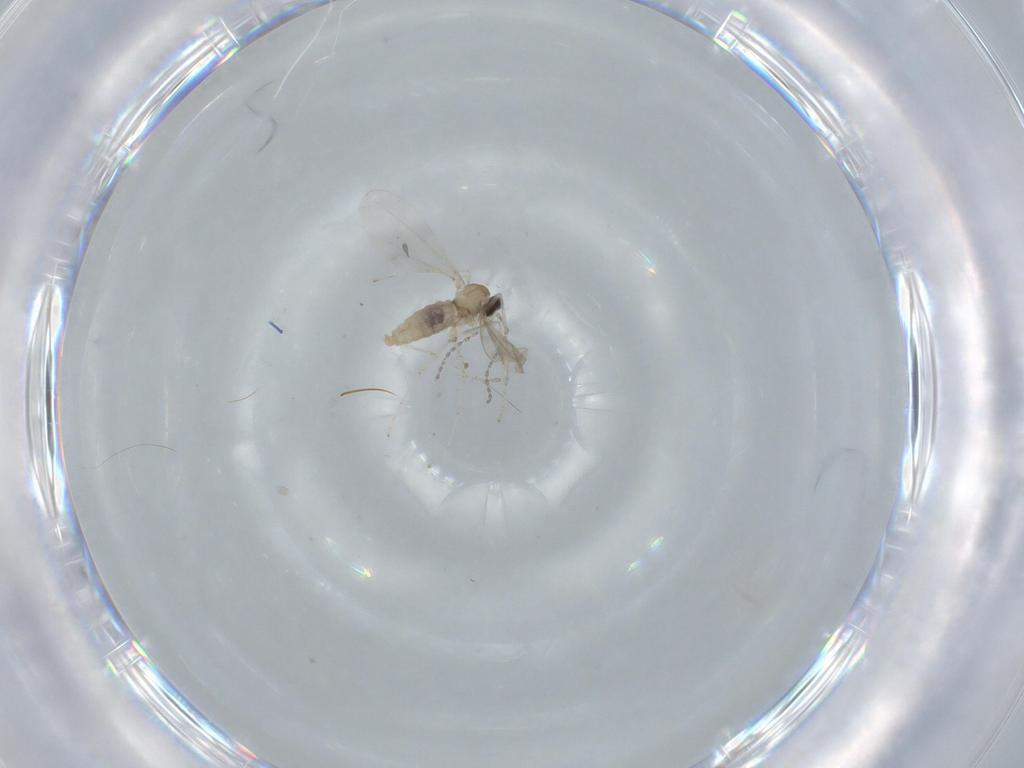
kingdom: Animalia
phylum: Arthropoda
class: Insecta
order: Diptera
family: Cecidomyiidae
